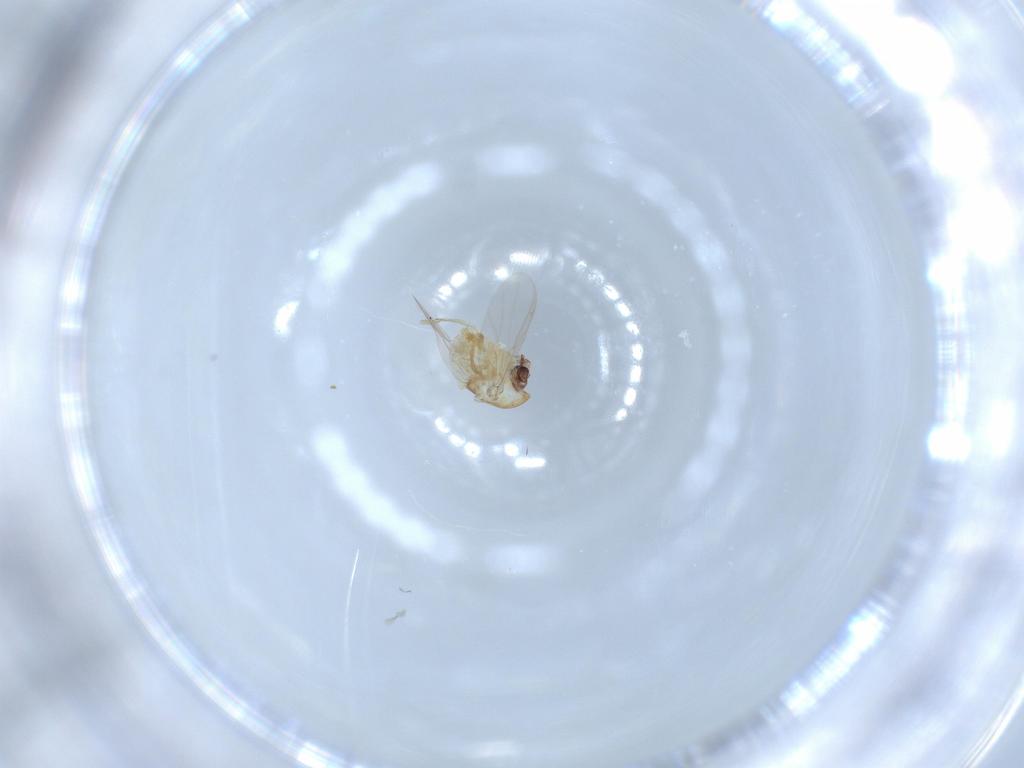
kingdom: Animalia
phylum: Arthropoda
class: Insecta
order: Diptera
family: Chironomidae
